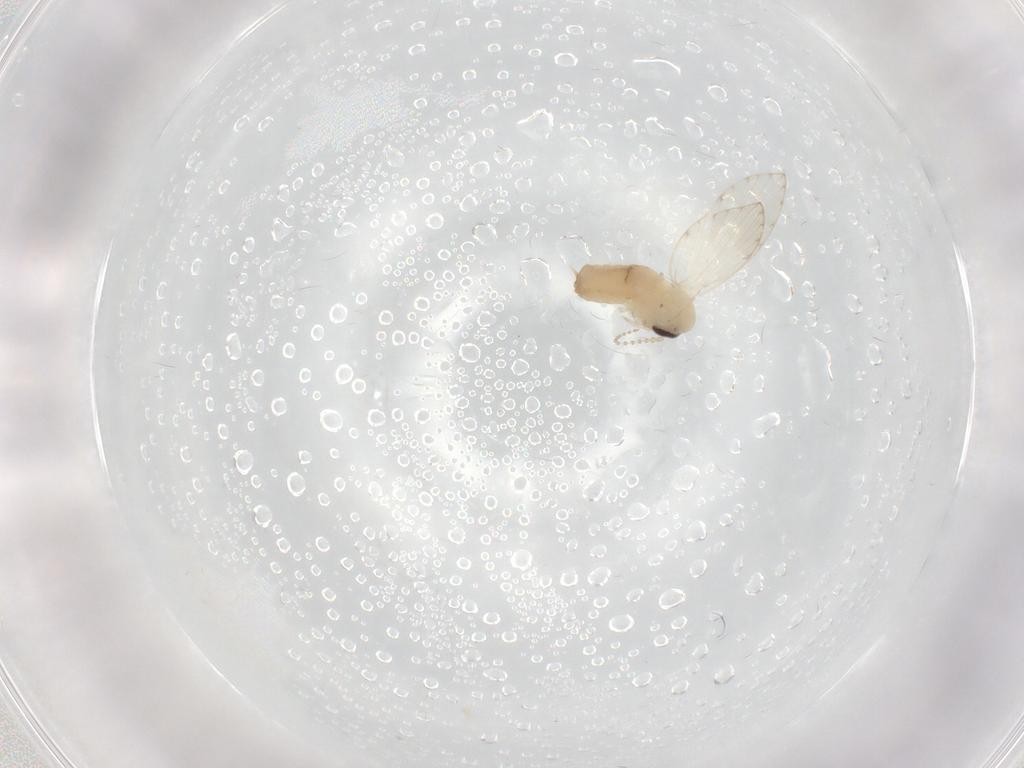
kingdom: Animalia
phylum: Arthropoda
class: Insecta
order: Diptera
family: Psychodidae
